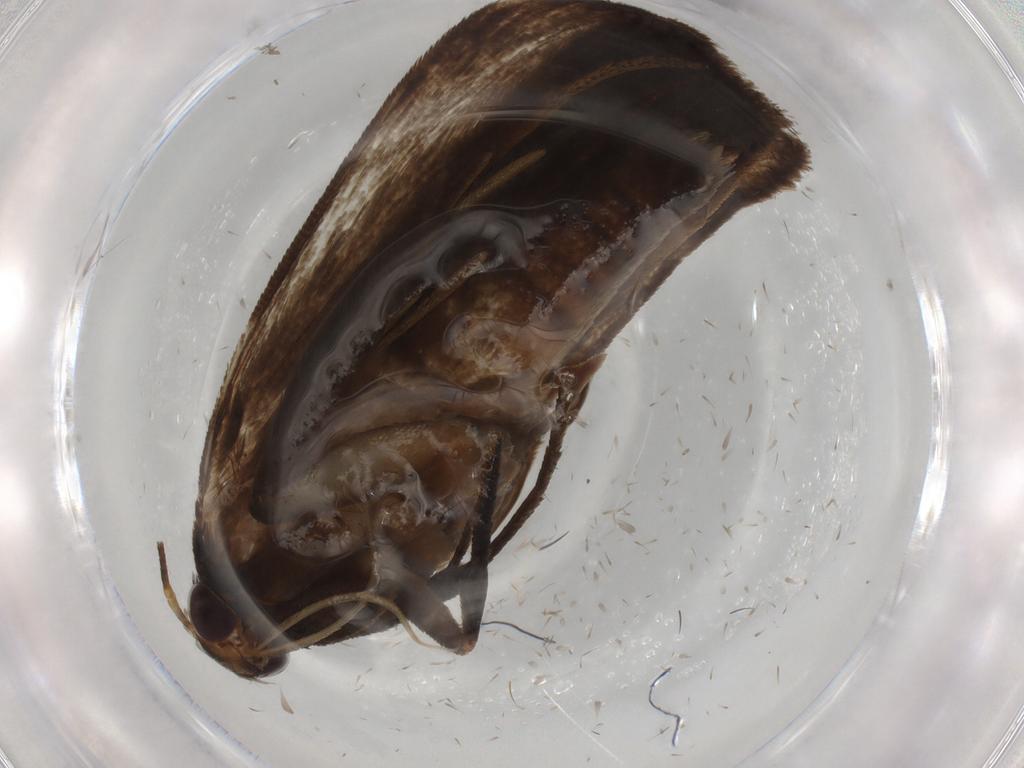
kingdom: Animalia
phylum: Arthropoda
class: Insecta
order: Lepidoptera
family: Gelechiidae
